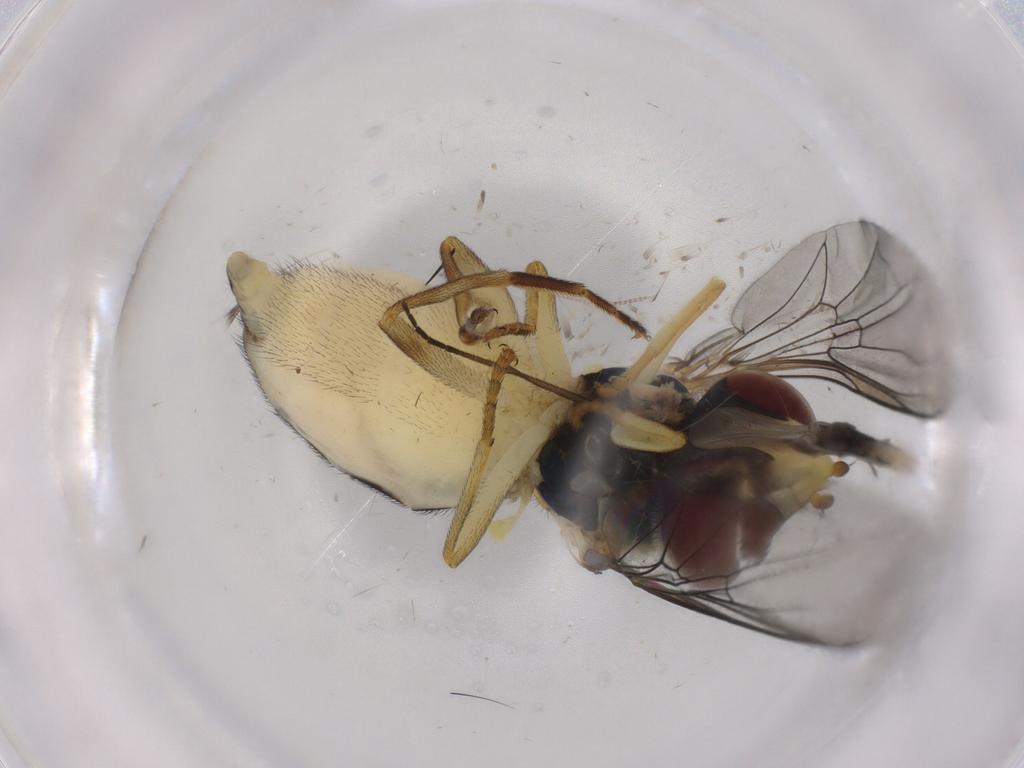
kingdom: Animalia
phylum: Arthropoda
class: Insecta
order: Diptera
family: Syrphidae
